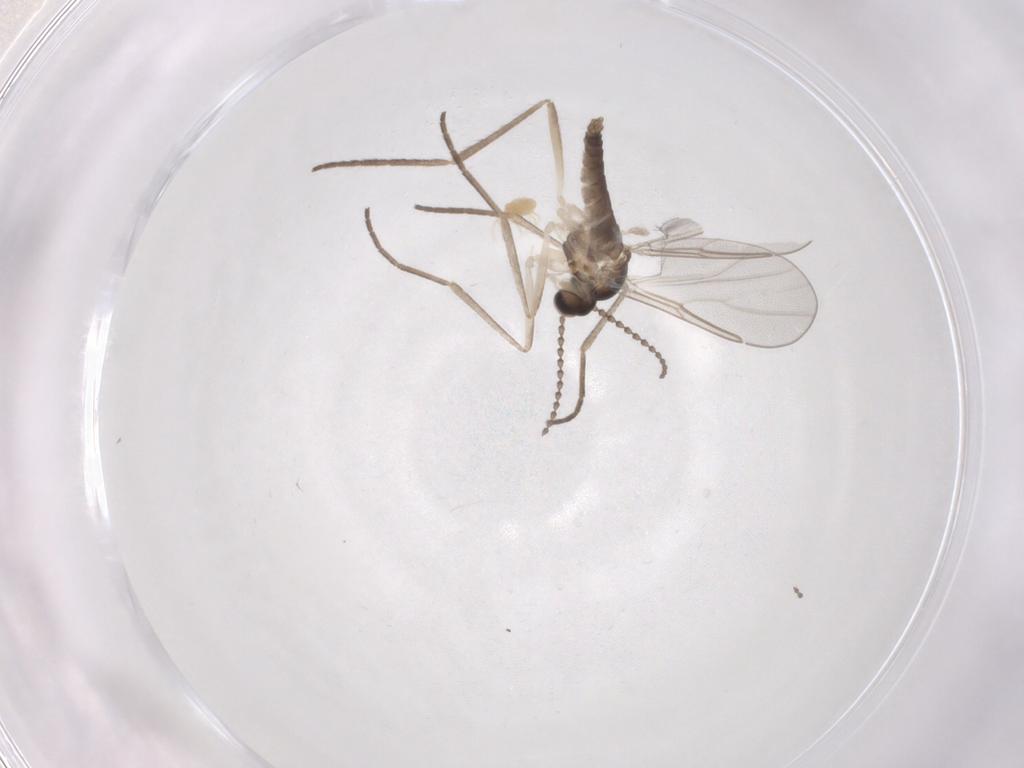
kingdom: Animalia
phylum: Arthropoda
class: Insecta
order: Diptera
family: Cecidomyiidae
